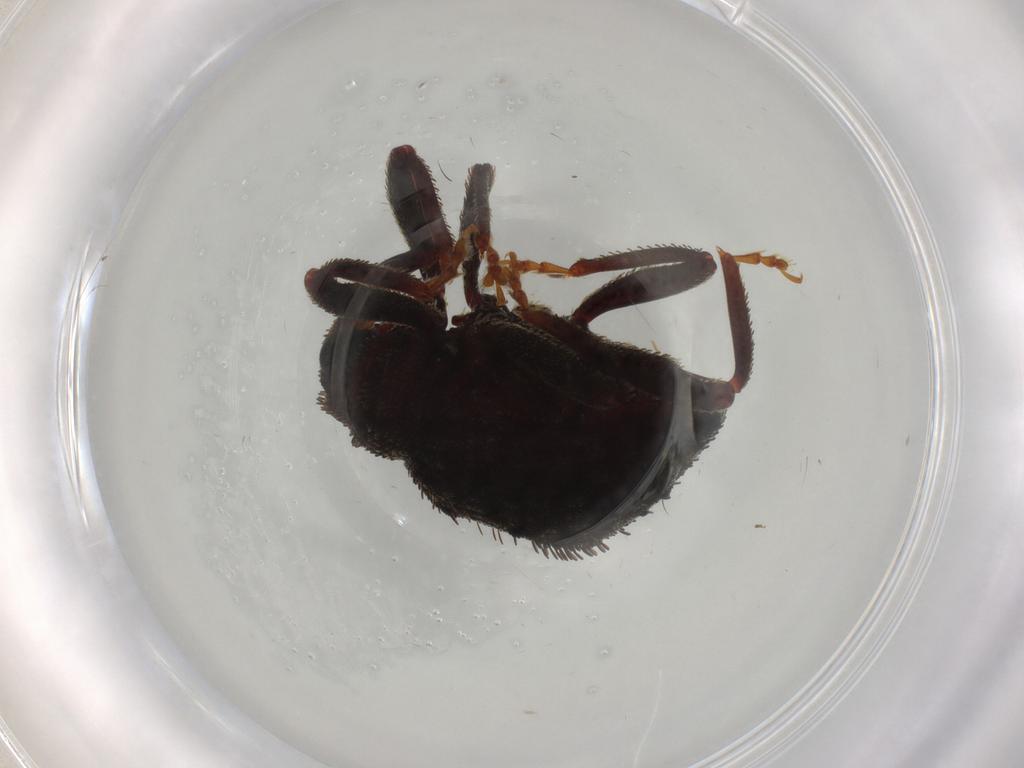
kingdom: Animalia
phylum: Arthropoda
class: Insecta
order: Coleoptera
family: Curculionidae
